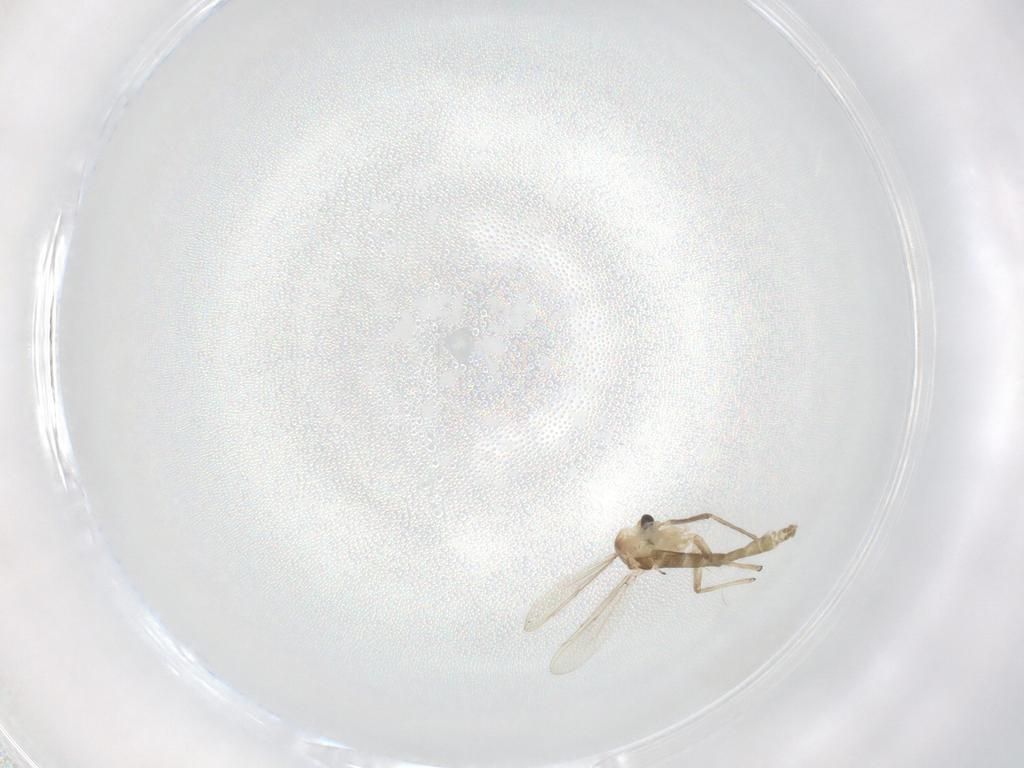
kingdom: Animalia
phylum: Arthropoda
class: Insecta
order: Diptera
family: Chironomidae
